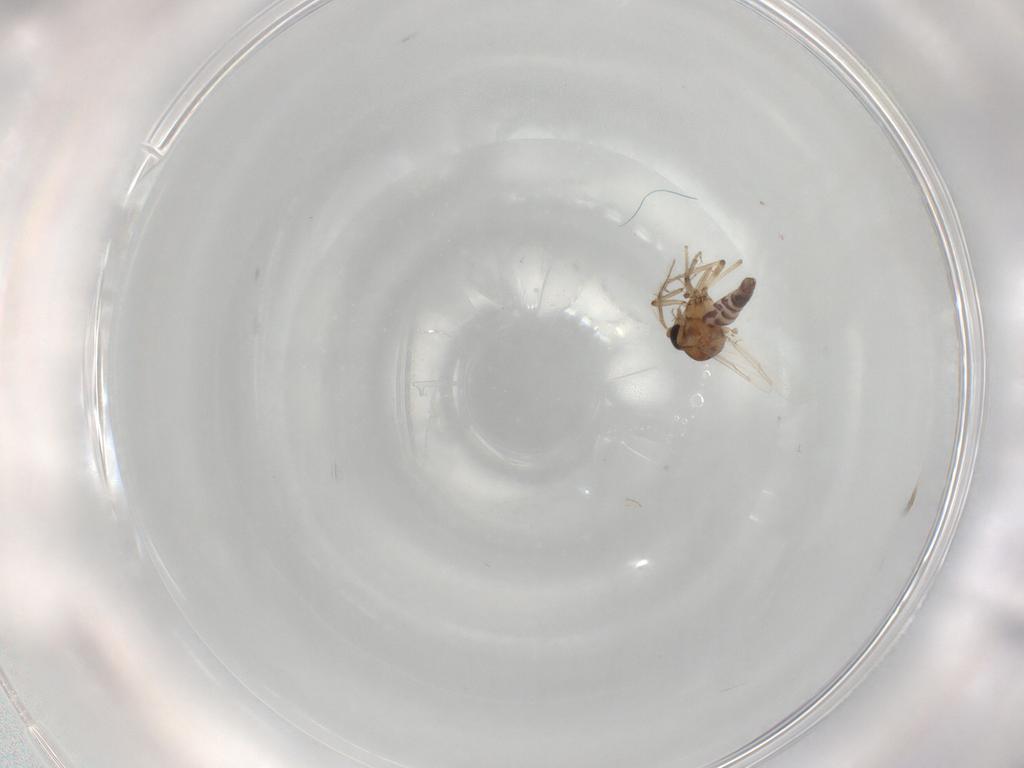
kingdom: Animalia
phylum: Arthropoda
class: Insecta
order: Diptera
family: Ceratopogonidae
